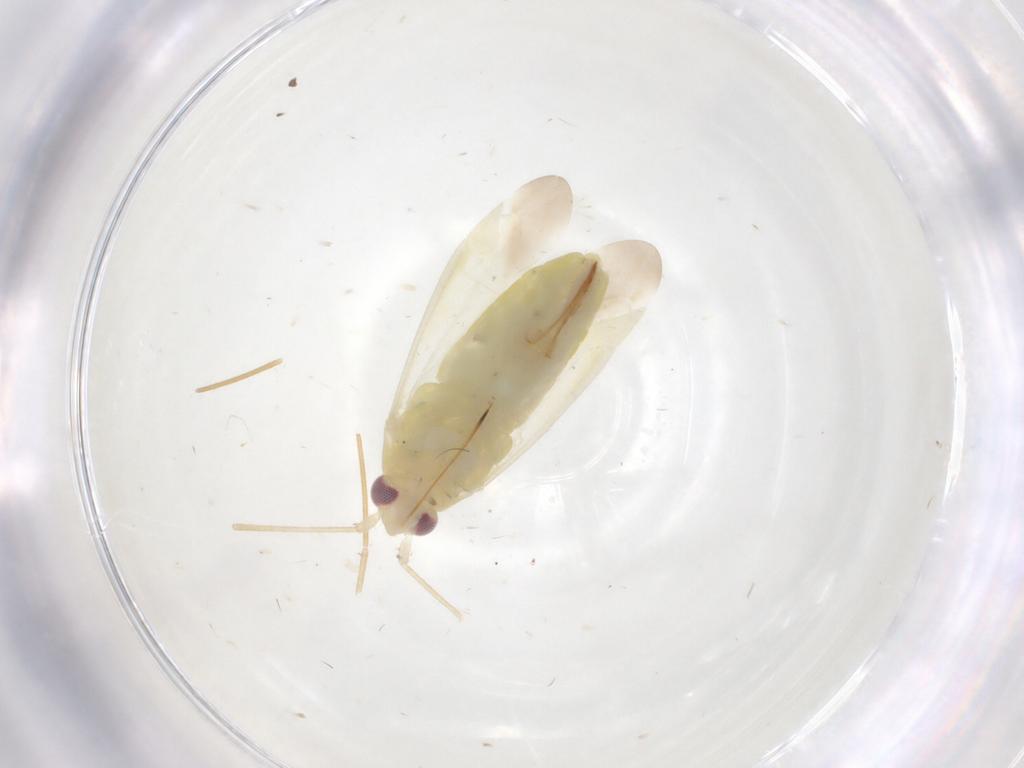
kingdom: Animalia
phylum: Arthropoda
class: Insecta
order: Hemiptera
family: Miridae
